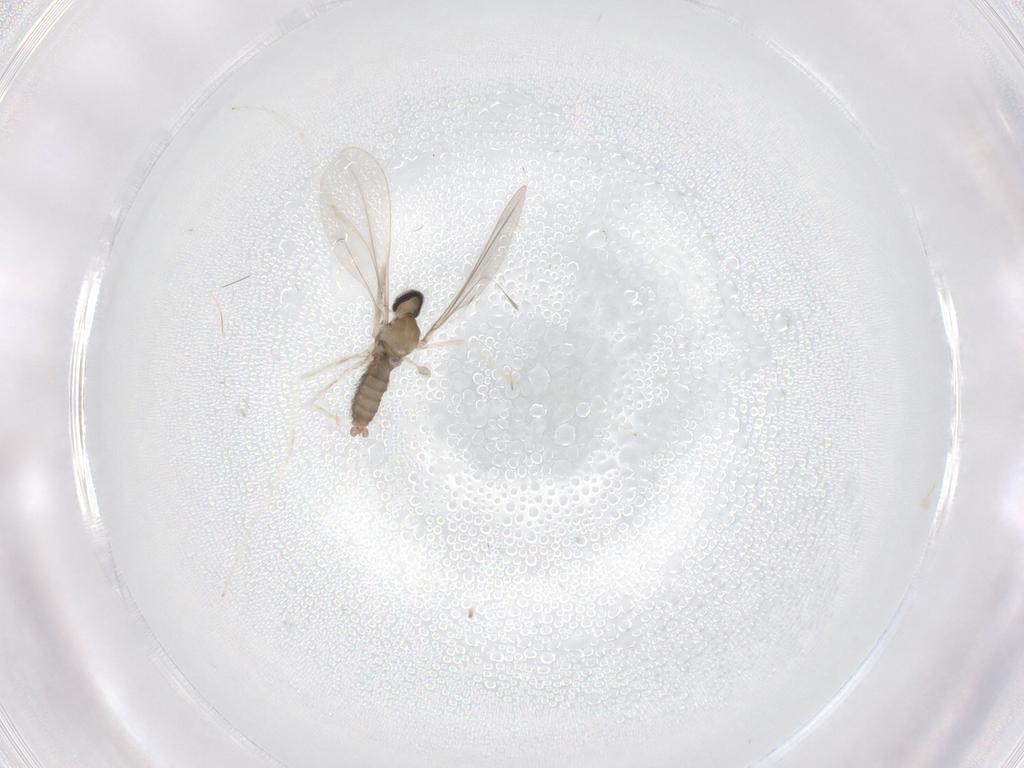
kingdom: Animalia
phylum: Arthropoda
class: Insecta
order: Diptera
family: Cecidomyiidae
